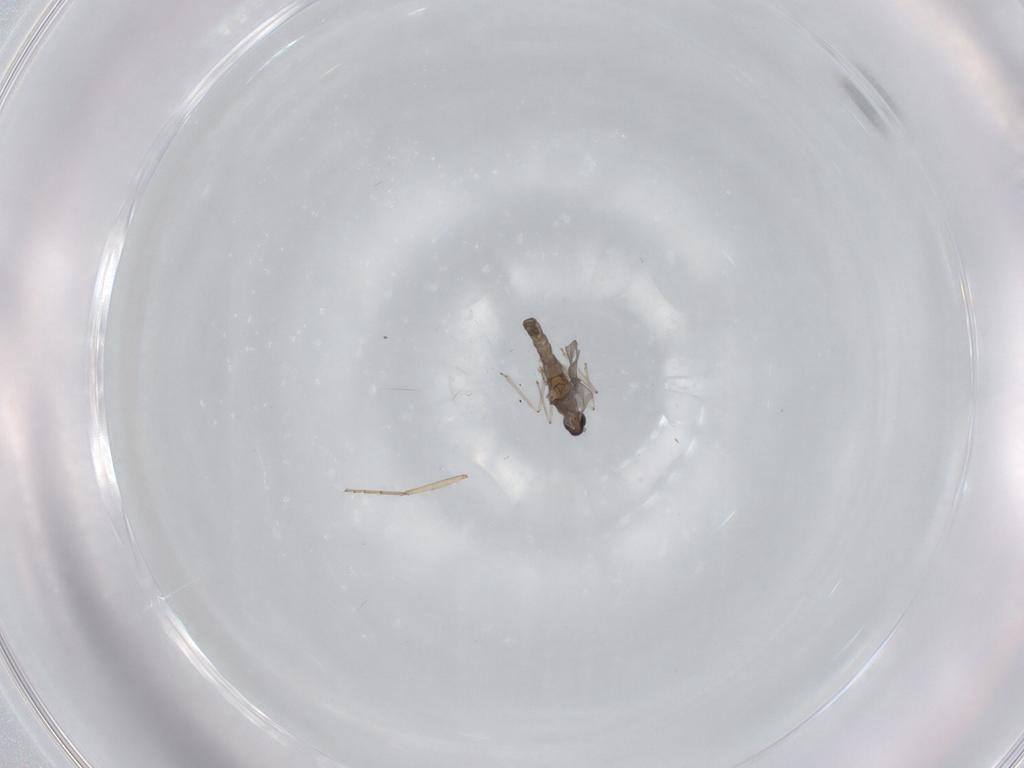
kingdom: Animalia
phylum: Arthropoda
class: Insecta
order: Diptera
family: Cecidomyiidae
